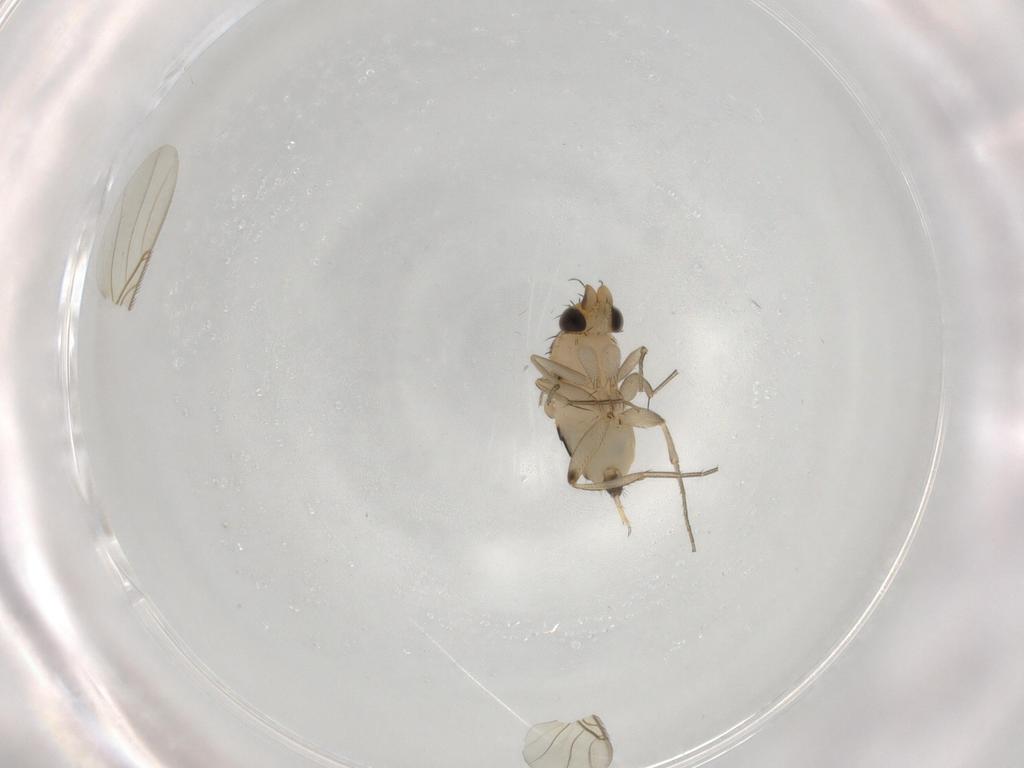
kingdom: Animalia
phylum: Arthropoda
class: Insecta
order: Diptera
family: Phoridae
